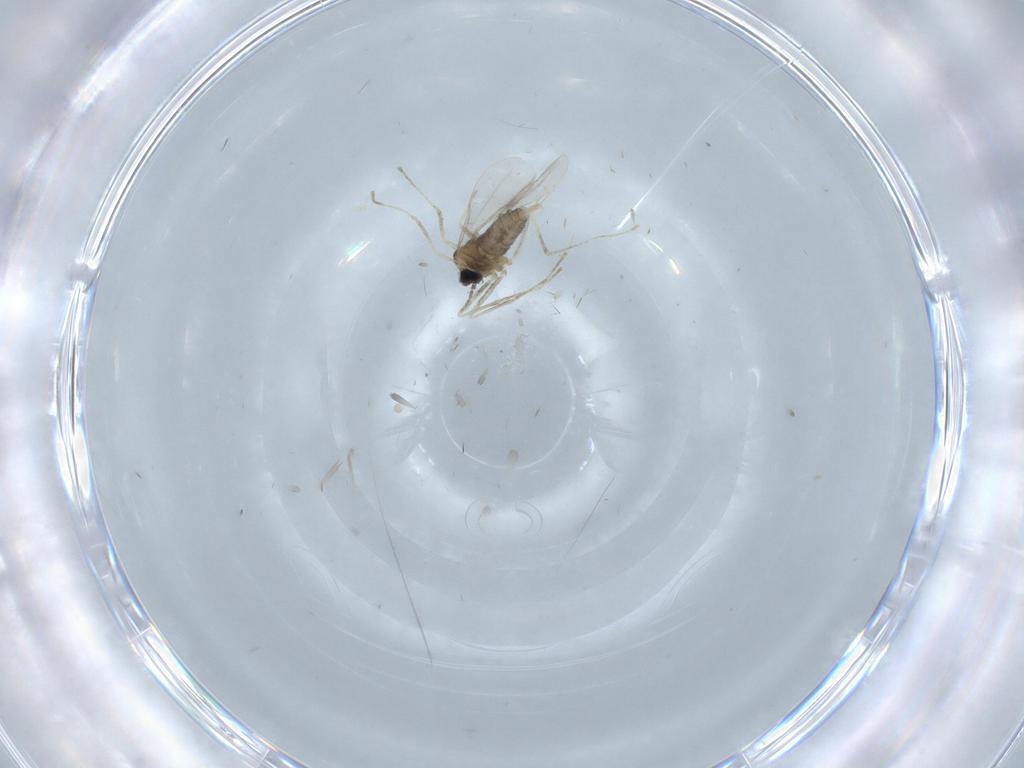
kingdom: Animalia
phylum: Arthropoda
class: Insecta
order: Diptera
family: Cecidomyiidae
